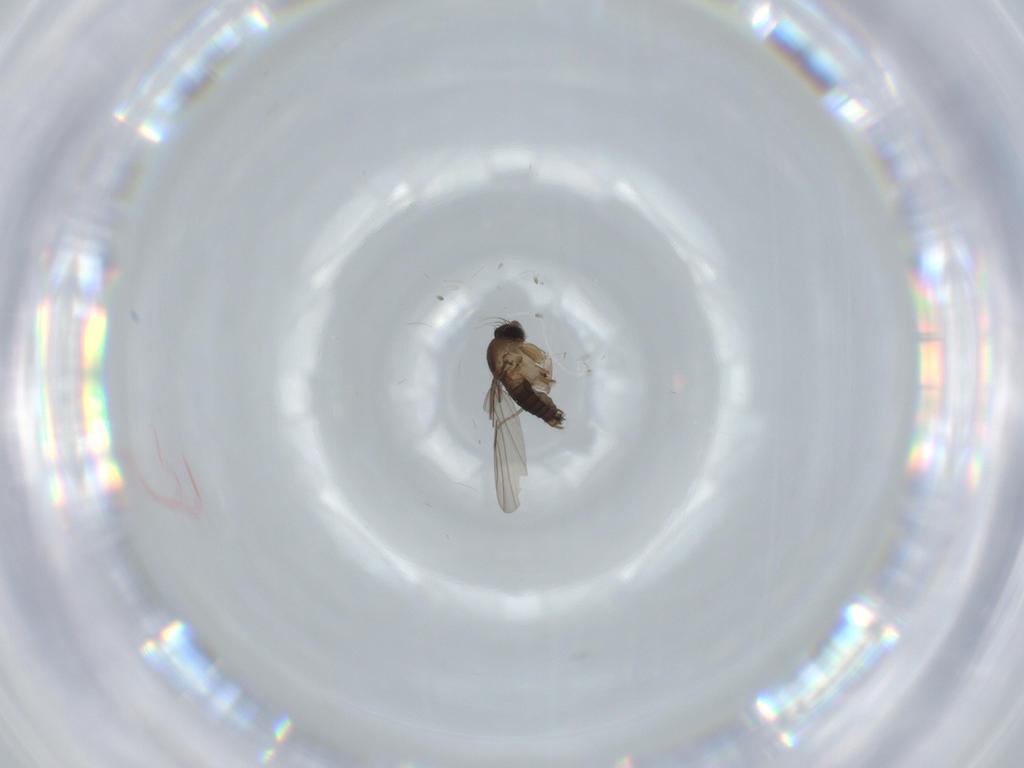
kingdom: Animalia
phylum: Arthropoda
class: Insecta
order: Diptera
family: Phoridae
